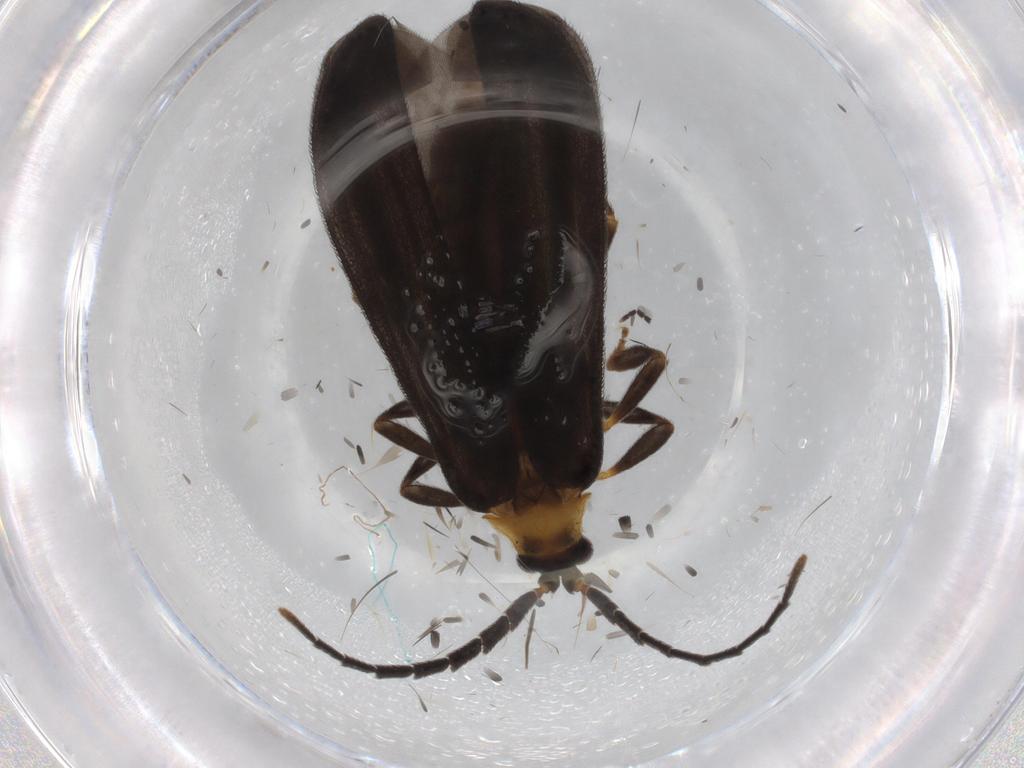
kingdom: Animalia
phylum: Arthropoda
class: Insecta
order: Coleoptera
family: Lycidae
